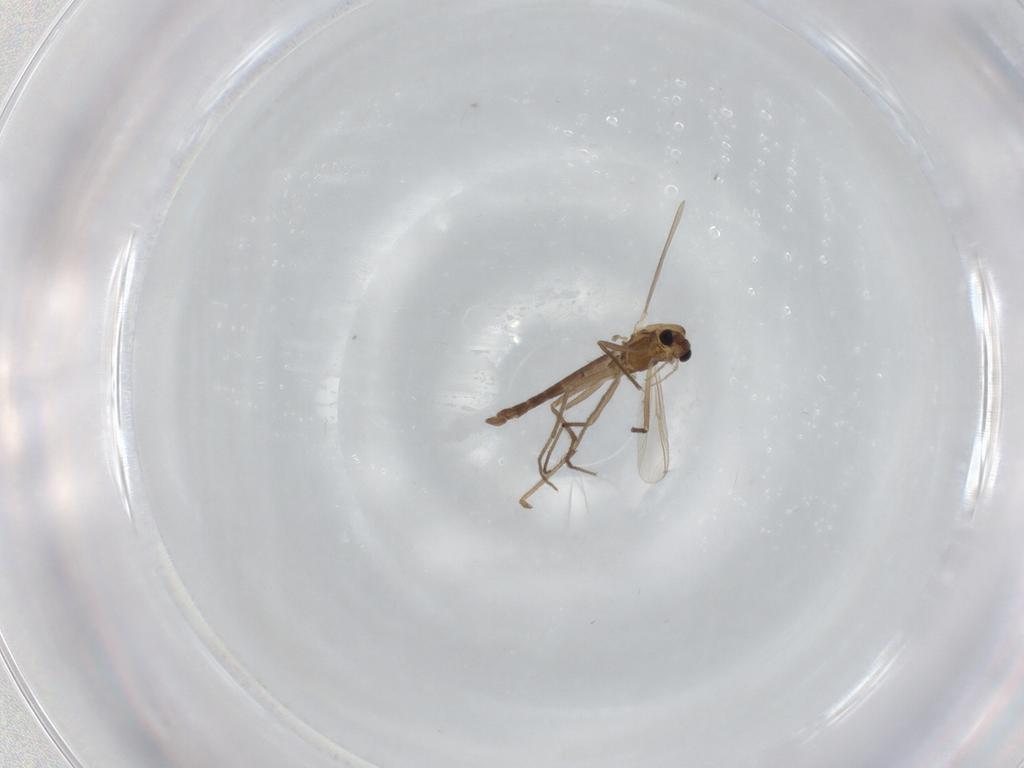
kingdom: Animalia
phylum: Arthropoda
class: Insecta
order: Diptera
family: Chironomidae
